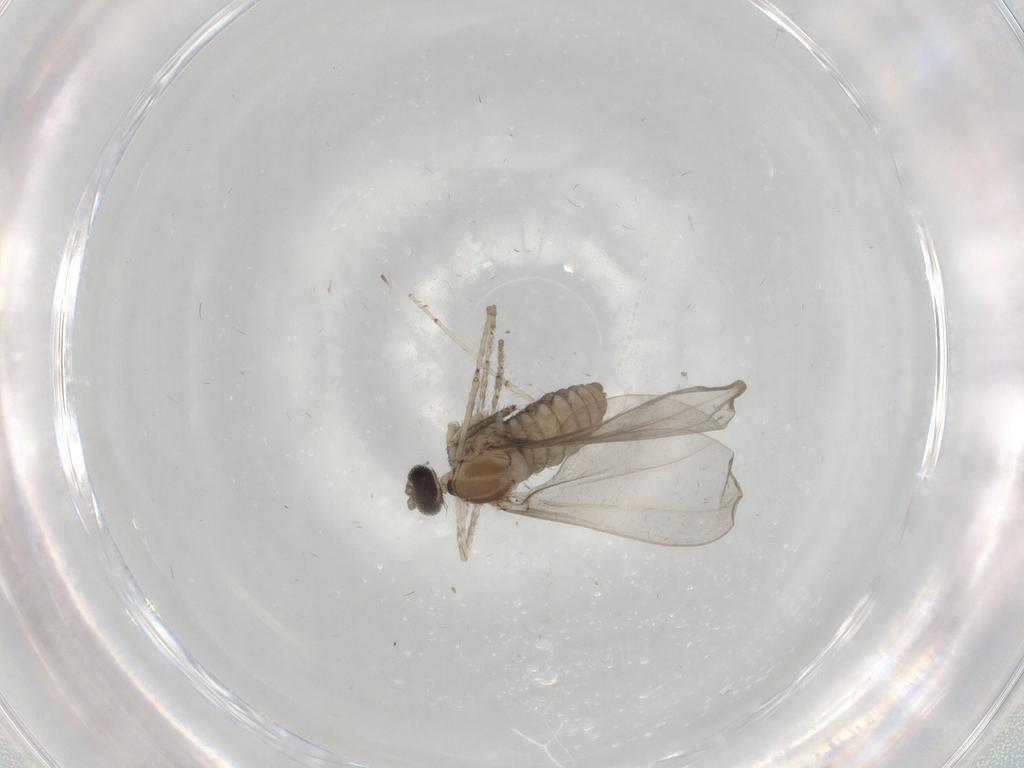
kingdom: Animalia
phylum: Arthropoda
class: Insecta
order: Diptera
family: Cecidomyiidae
